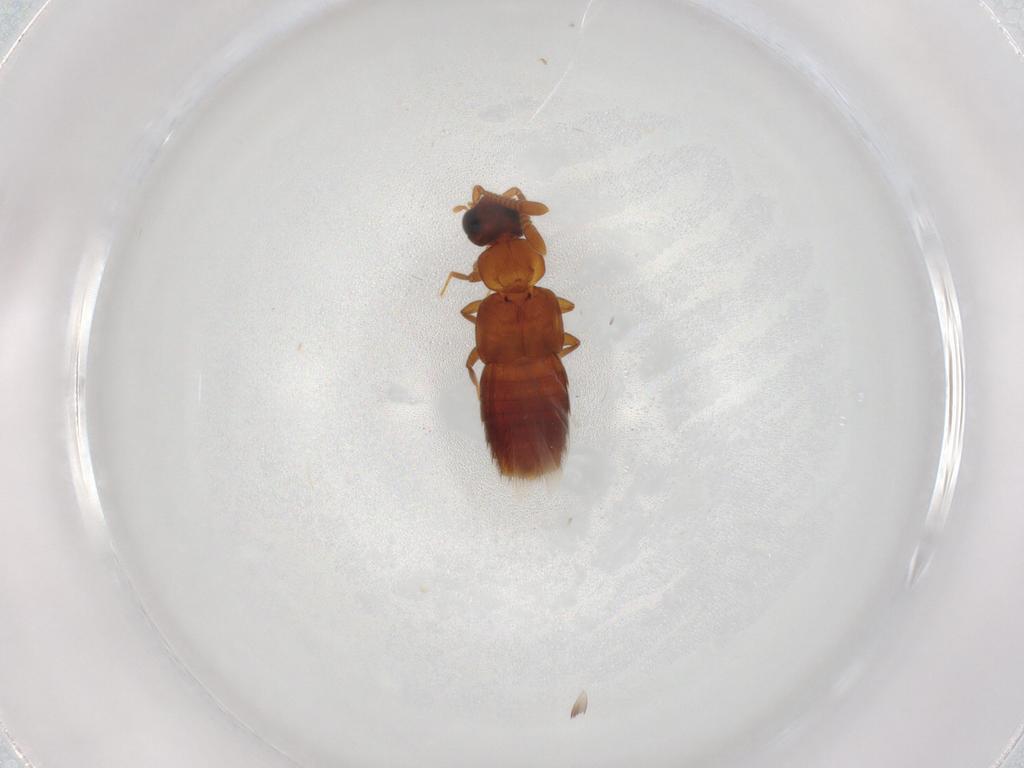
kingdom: Animalia
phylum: Arthropoda
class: Insecta
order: Coleoptera
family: Staphylinidae
